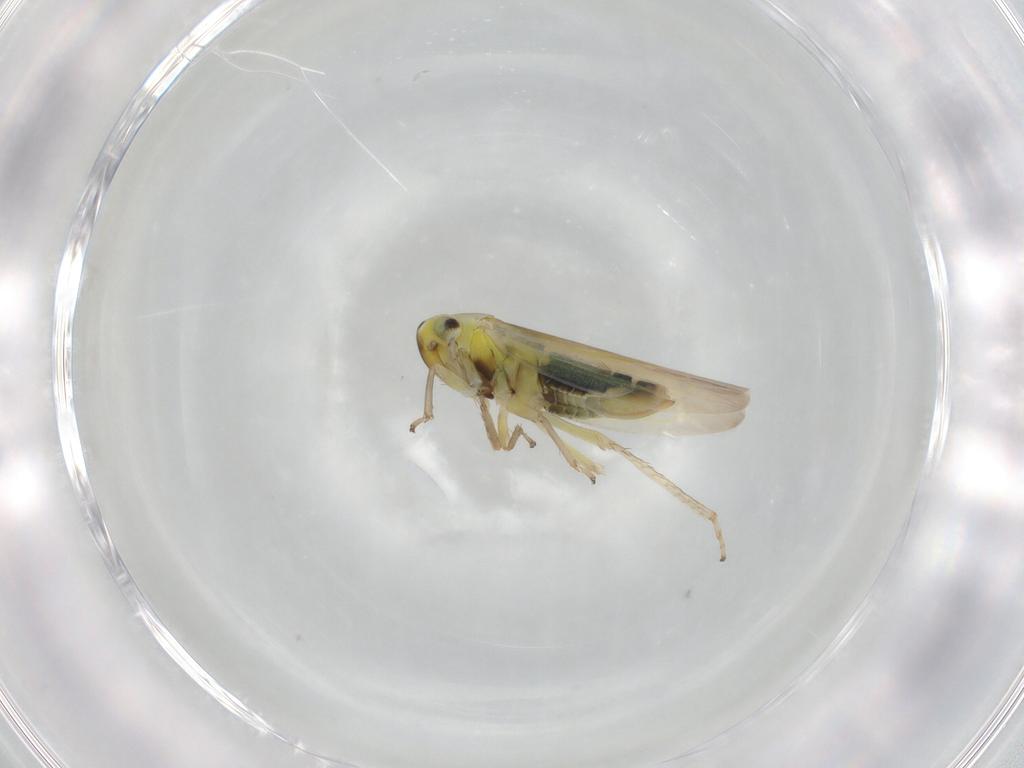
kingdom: Animalia
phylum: Arthropoda
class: Insecta
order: Hemiptera
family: Cicadellidae
